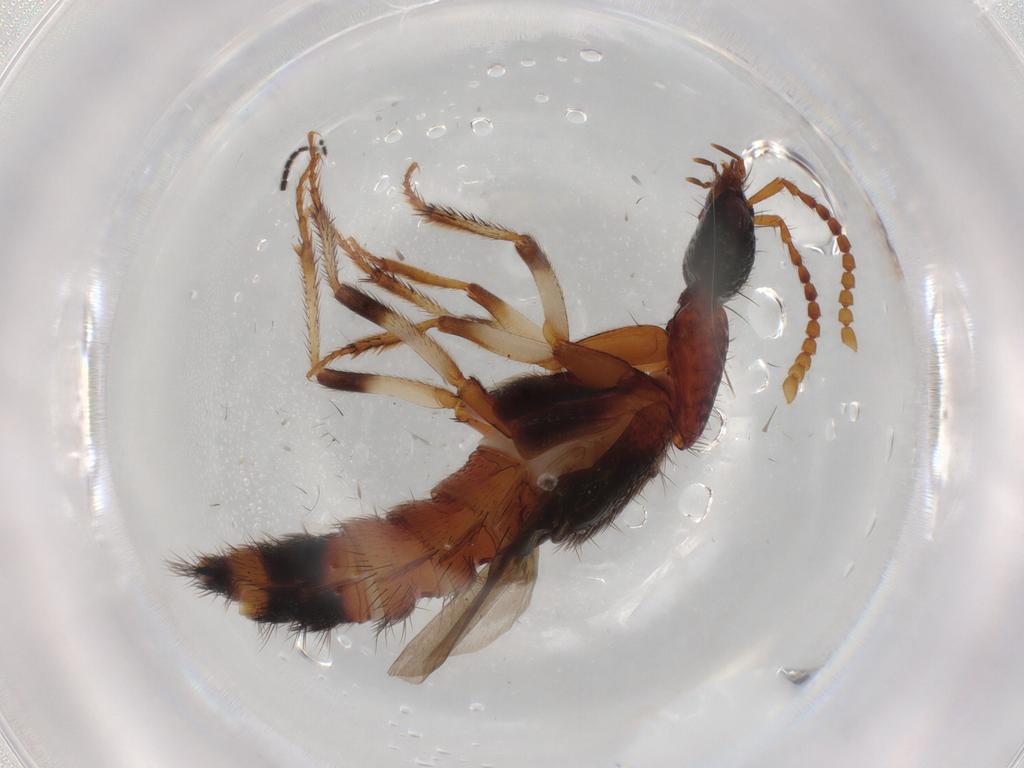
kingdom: Animalia
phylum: Arthropoda
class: Insecta
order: Coleoptera
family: Staphylinidae
